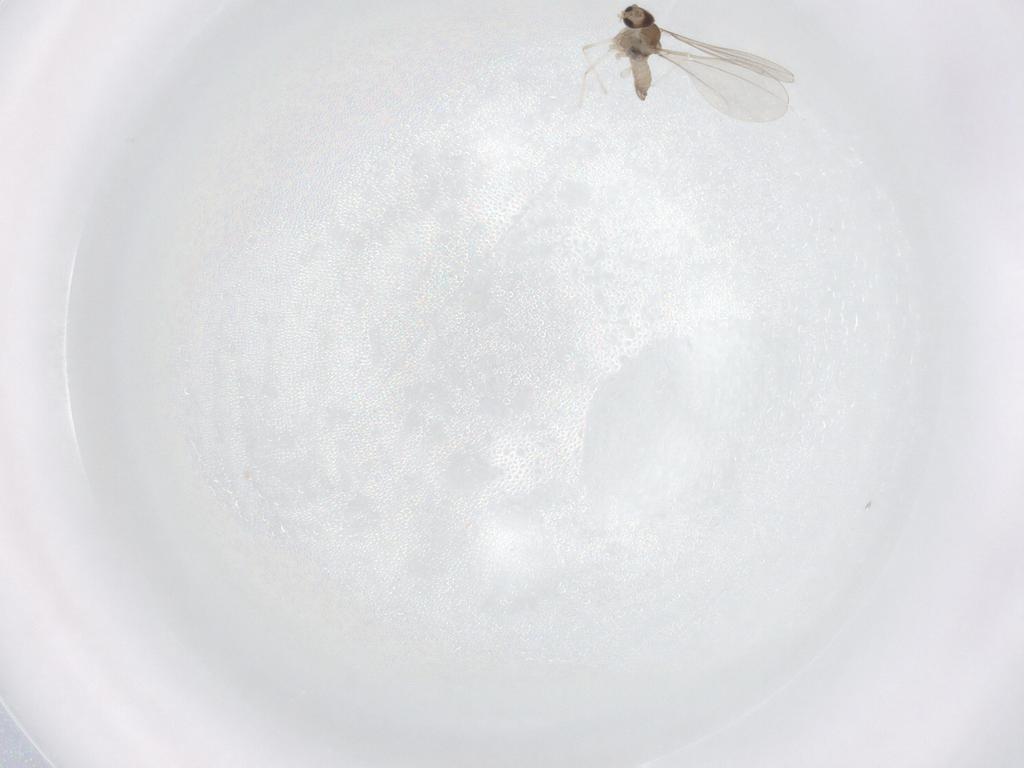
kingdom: Animalia
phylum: Arthropoda
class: Insecta
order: Diptera
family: Cecidomyiidae
